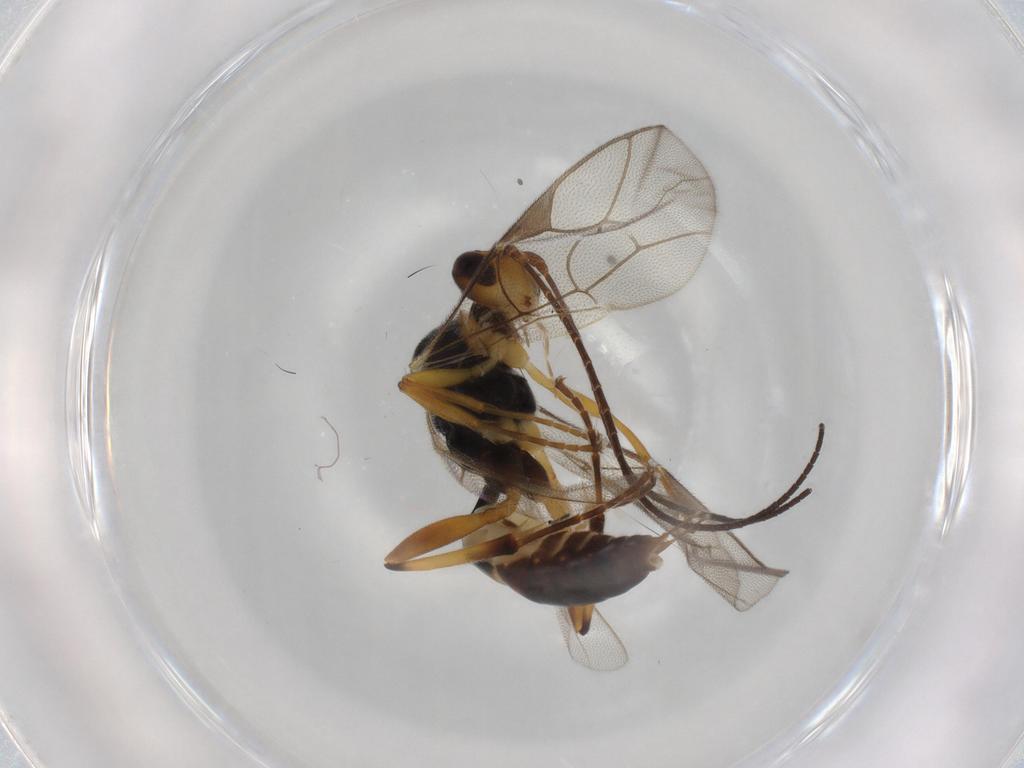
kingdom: Animalia
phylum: Arthropoda
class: Insecta
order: Hymenoptera
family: Ichneumonidae
